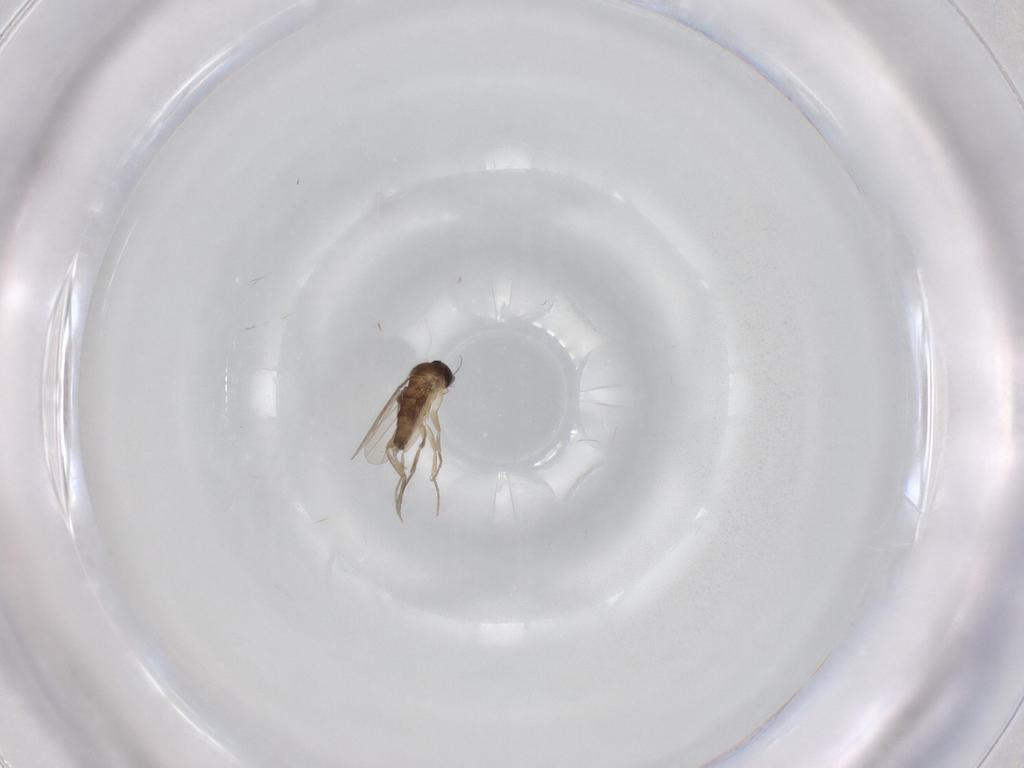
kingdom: Animalia
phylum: Arthropoda
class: Insecta
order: Diptera
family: Phoridae
